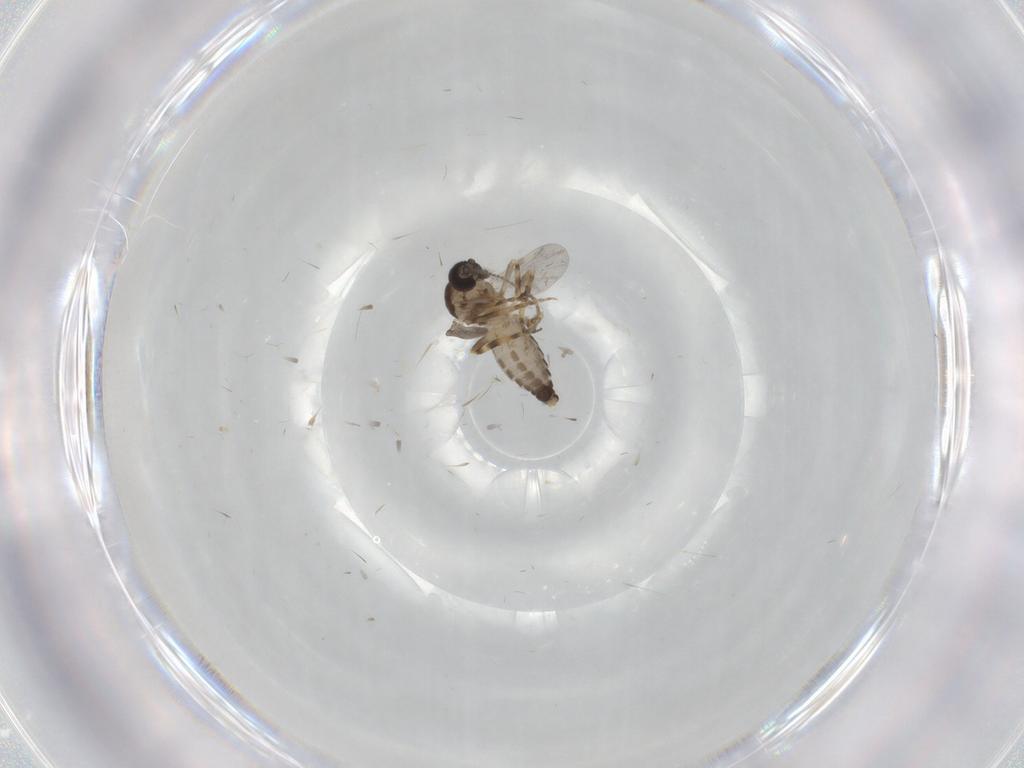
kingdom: Animalia
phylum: Arthropoda
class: Insecta
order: Diptera
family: Ceratopogonidae
